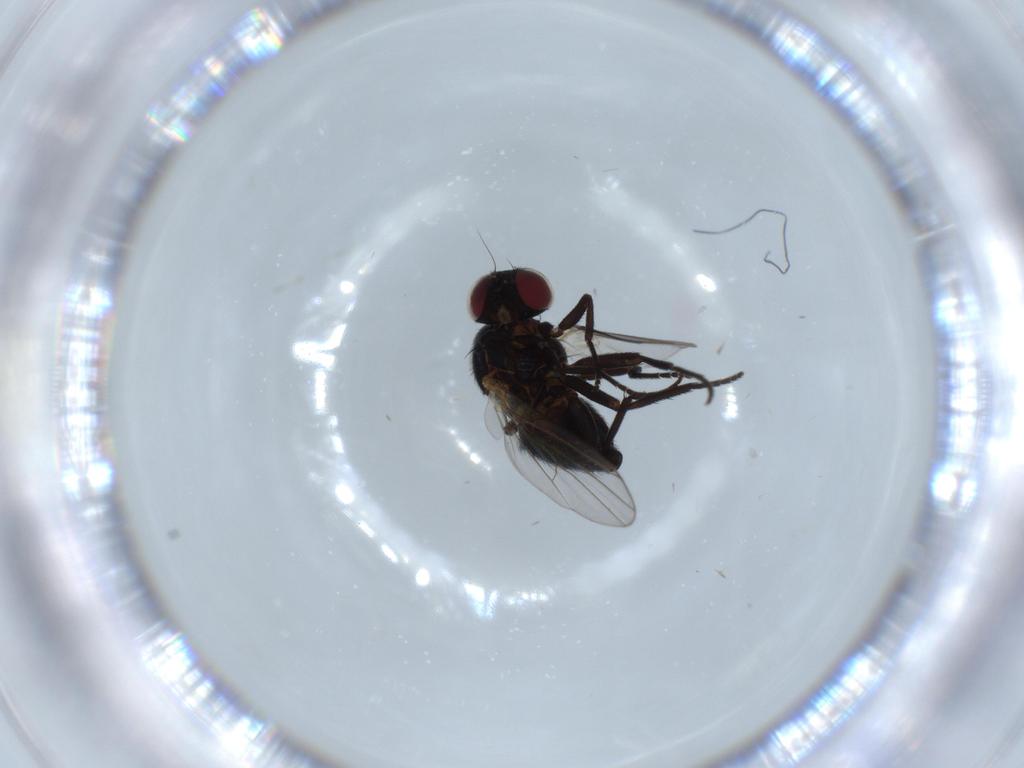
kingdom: Animalia
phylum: Arthropoda
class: Insecta
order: Diptera
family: Agromyzidae
